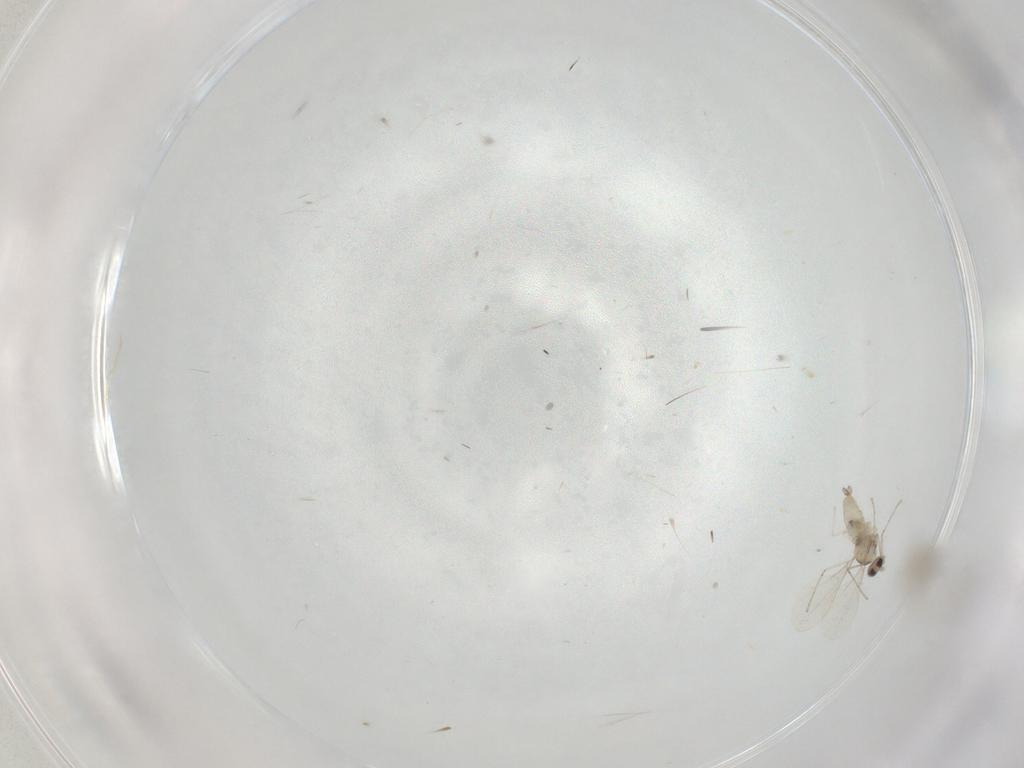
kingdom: Animalia
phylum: Arthropoda
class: Insecta
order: Diptera
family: Cecidomyiidae
